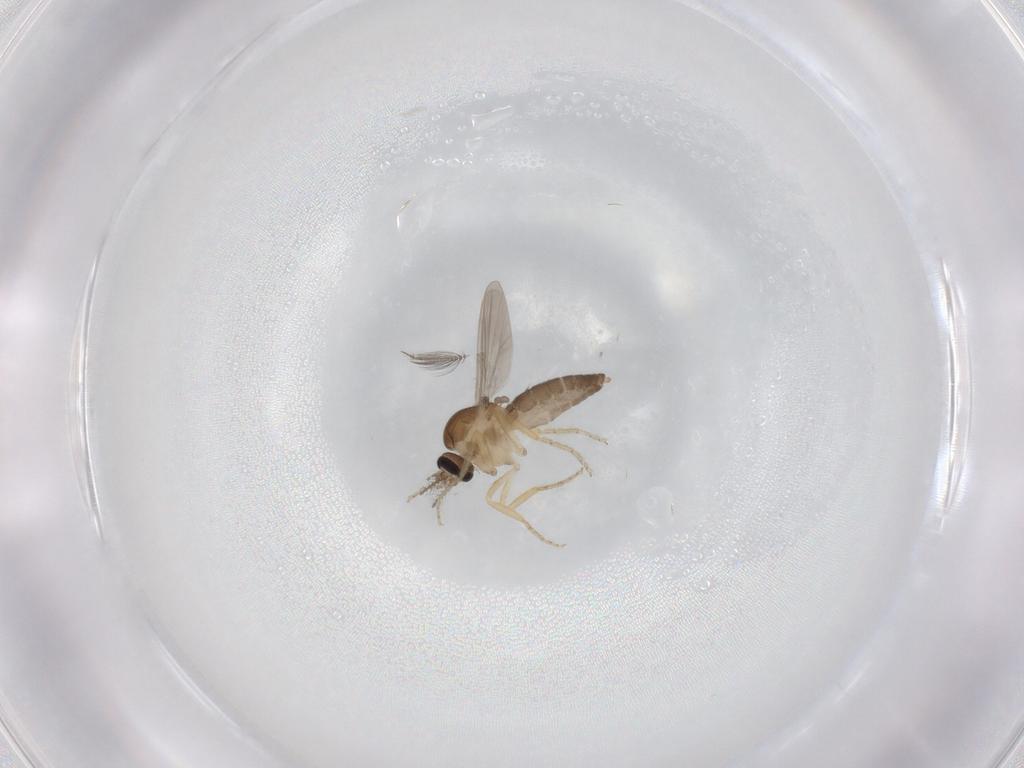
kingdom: Animalia
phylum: Arthropoda
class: Insecta
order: Diptera
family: Ceratopogonidae
